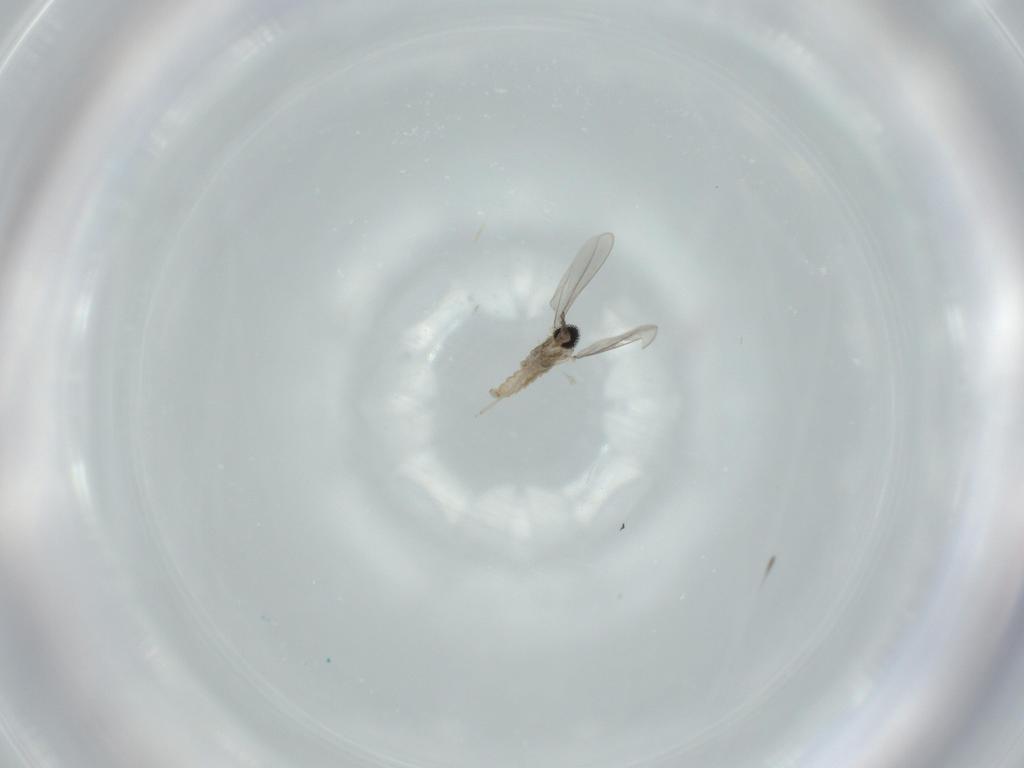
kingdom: Animalia
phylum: Arthropoda
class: Insecta
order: Diptera
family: Cecidomyiidae
